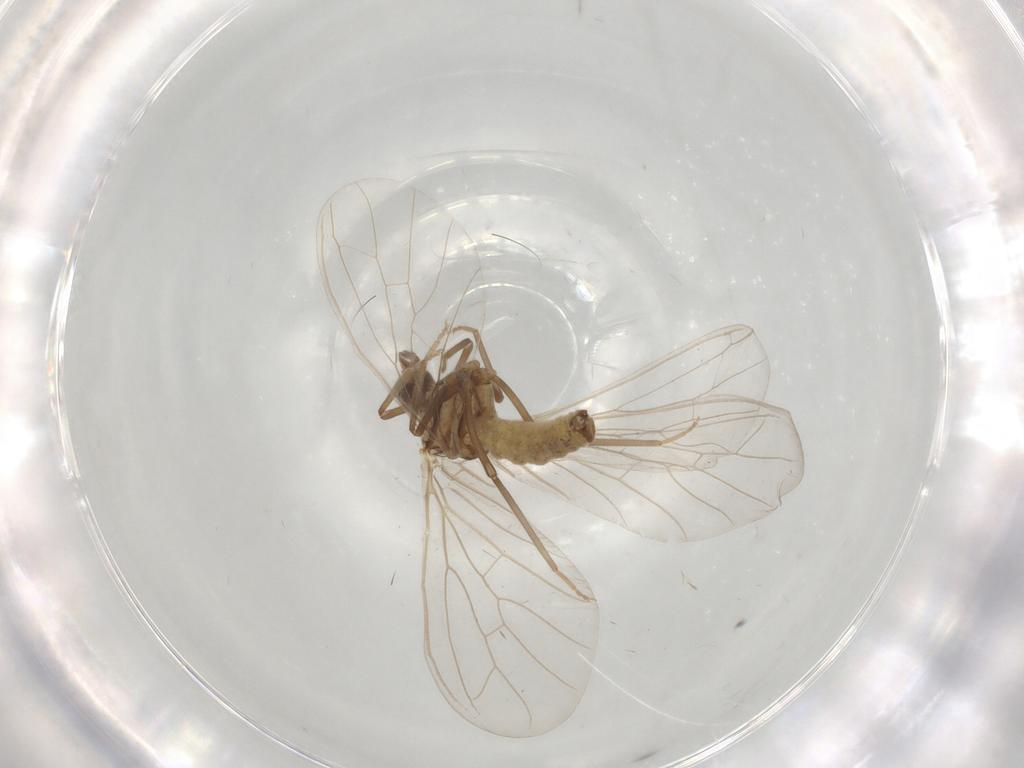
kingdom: Animalia
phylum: Arthropoda
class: Insecta
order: Neuroptera
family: Coniopterygidae
